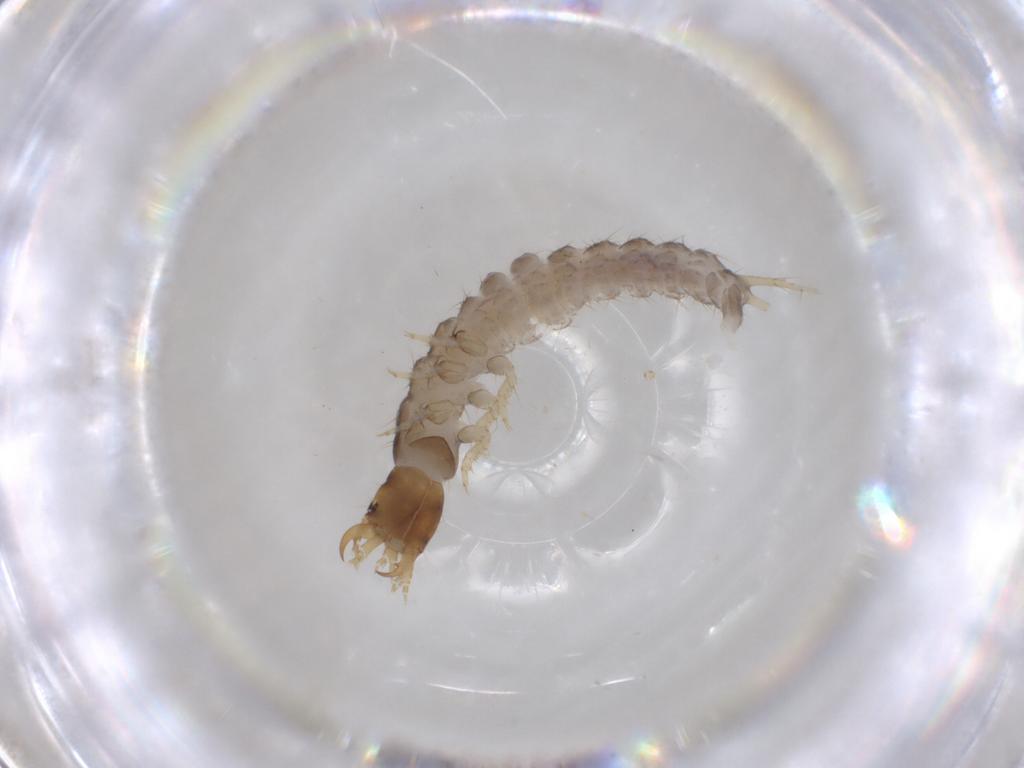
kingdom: Animalia
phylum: Arthropoda
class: Insecta
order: Coleoptera
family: Carabidae
